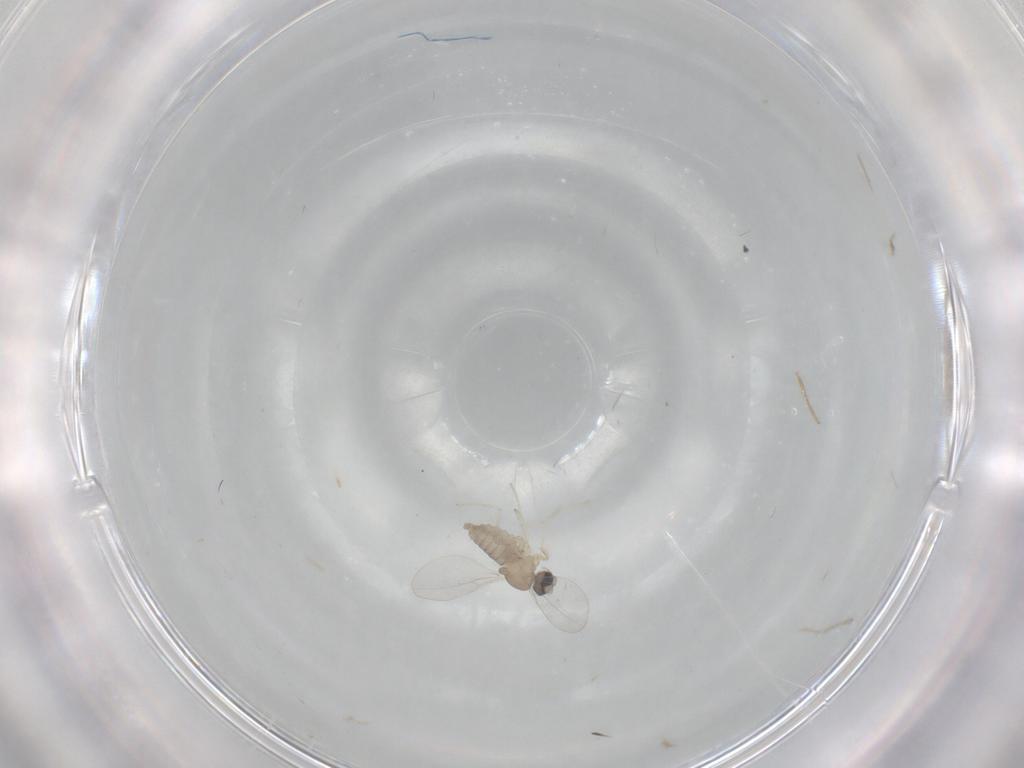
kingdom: Animalia
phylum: Arthropoda
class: Insecta
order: Diptera
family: Cecidomyiidae
